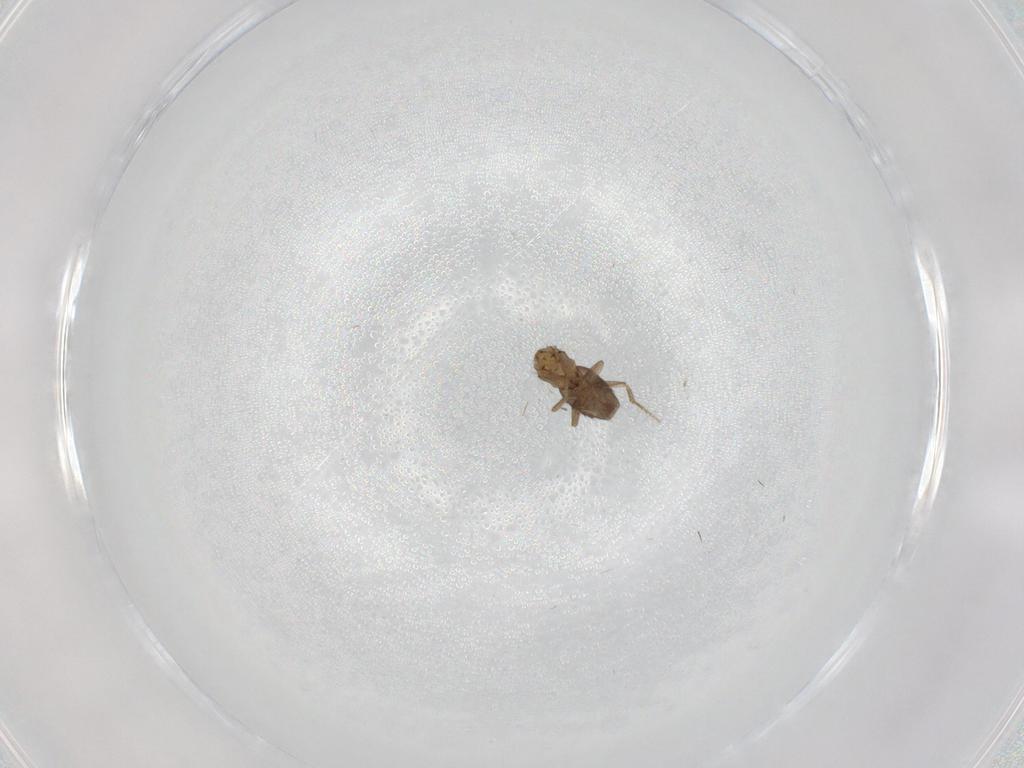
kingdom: Animalia
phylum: Arthropoda
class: Insecta
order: Diptera
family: Phoridae
